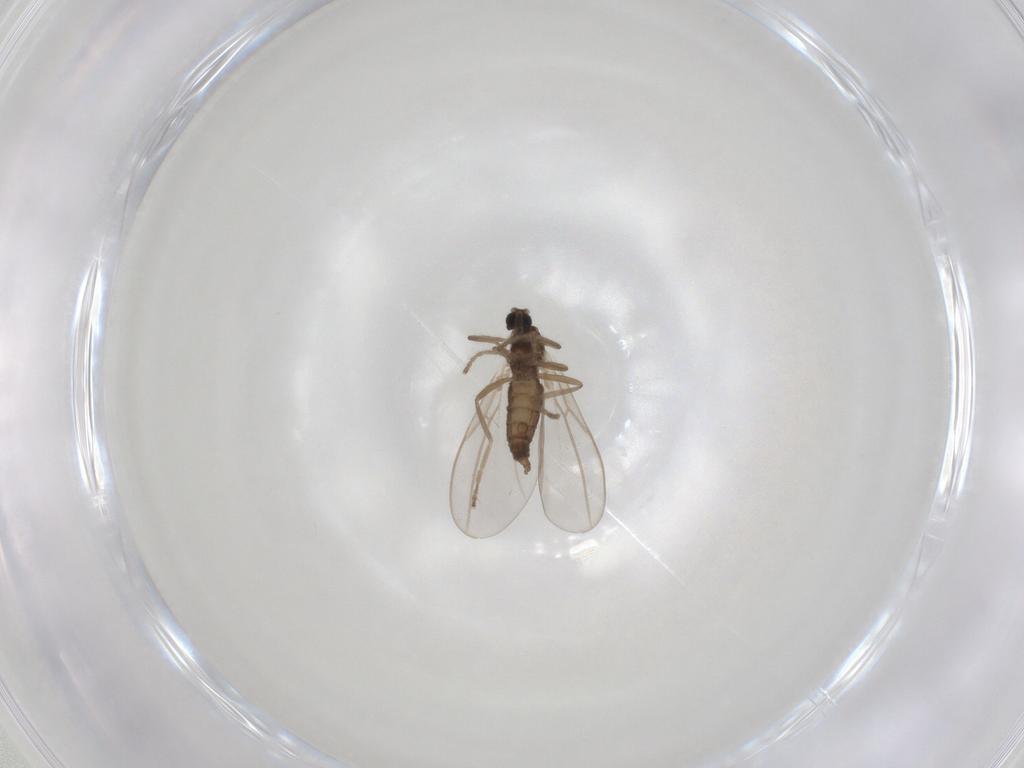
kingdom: Animalia
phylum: Arthropoda
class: Insecta
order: Diptera
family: Cecidomyiidae
